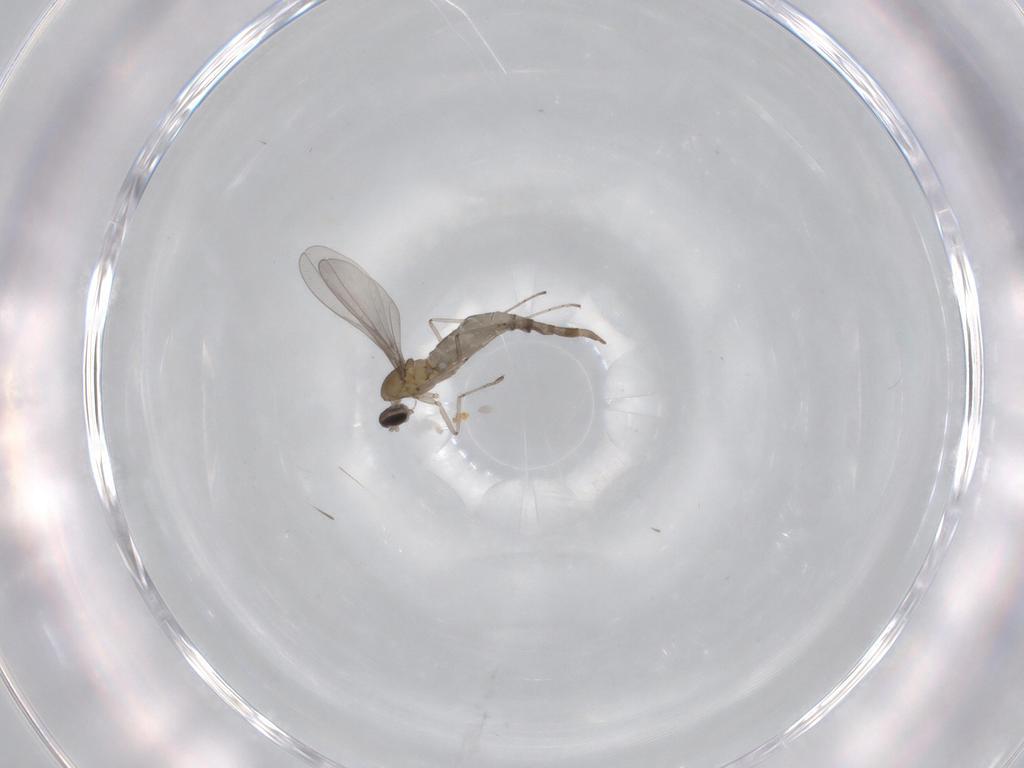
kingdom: Animalia
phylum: Arthropoda
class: Insecta
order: Diptera
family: Cecidomyiidae
